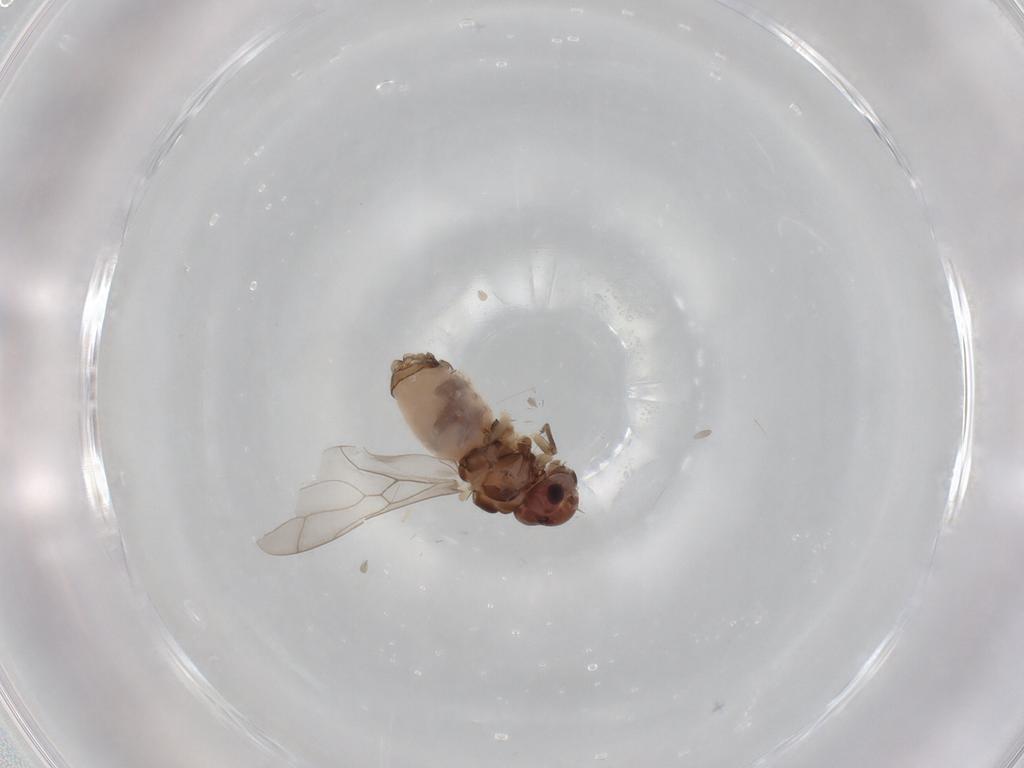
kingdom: Animalia
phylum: Arthropoda
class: Insecta
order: Psocodea
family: Peripsocidae
